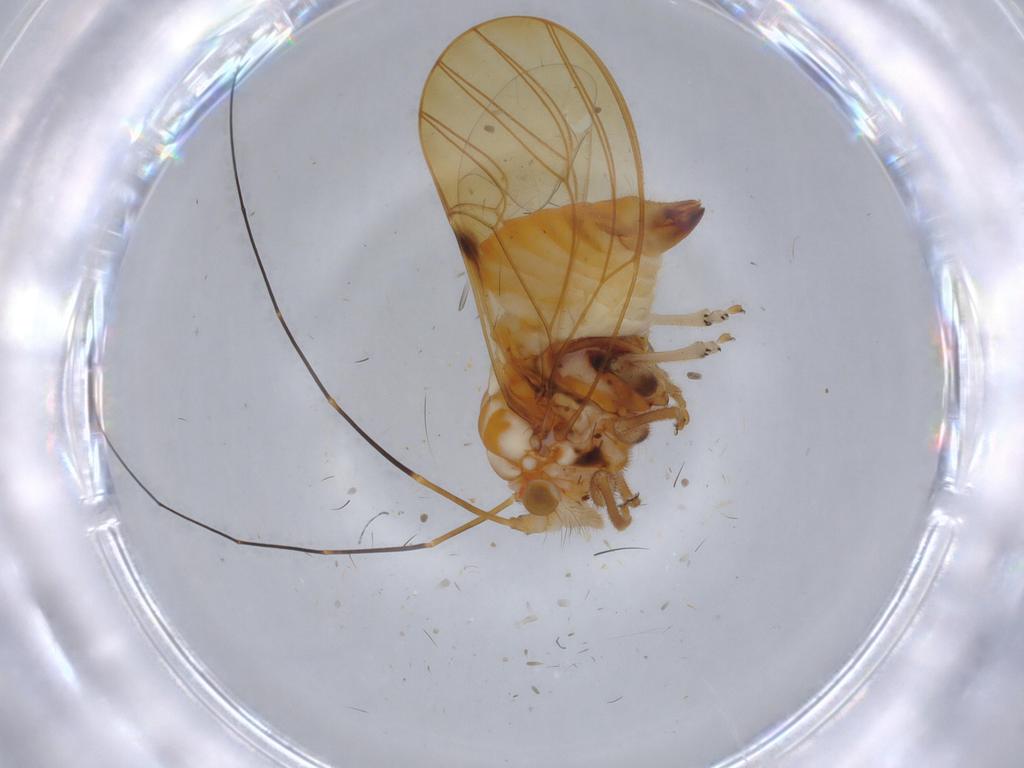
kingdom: Animalia
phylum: Arthropoda
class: Insecta
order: Hemiptera
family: Psyllidae
